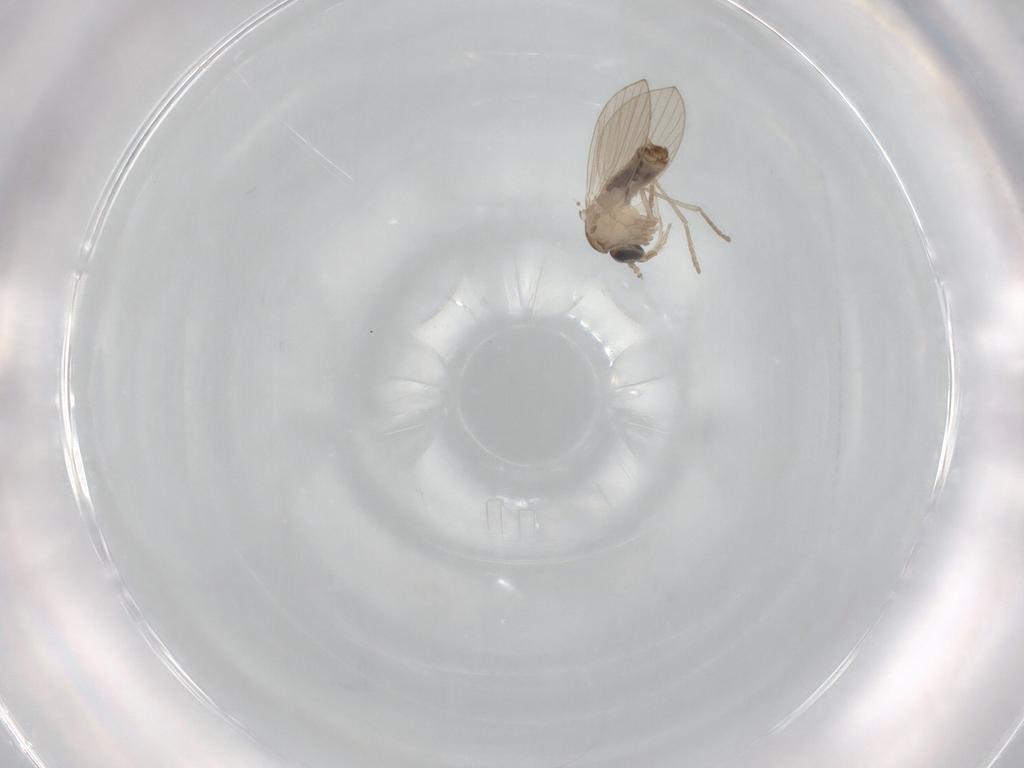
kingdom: Animalia
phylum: Arthropoda
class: Insecta
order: Diptera
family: Psychodidae
